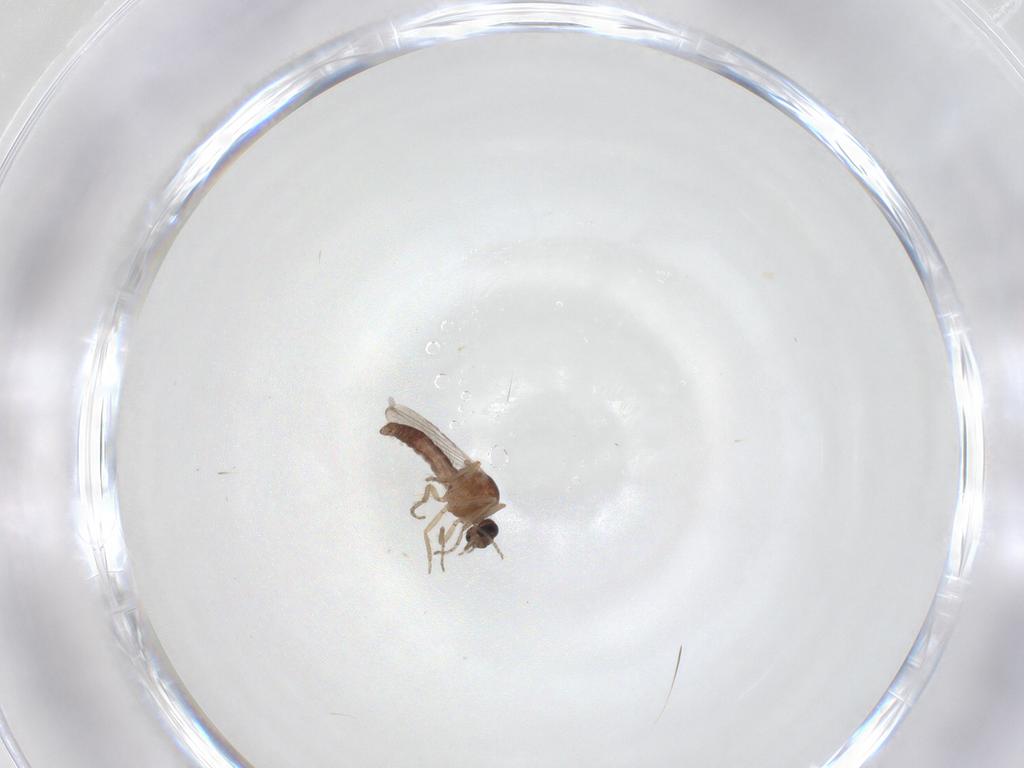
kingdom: Animalia
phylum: Arthropoda
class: Insecta
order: Diptera
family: Ceratopogonidae
